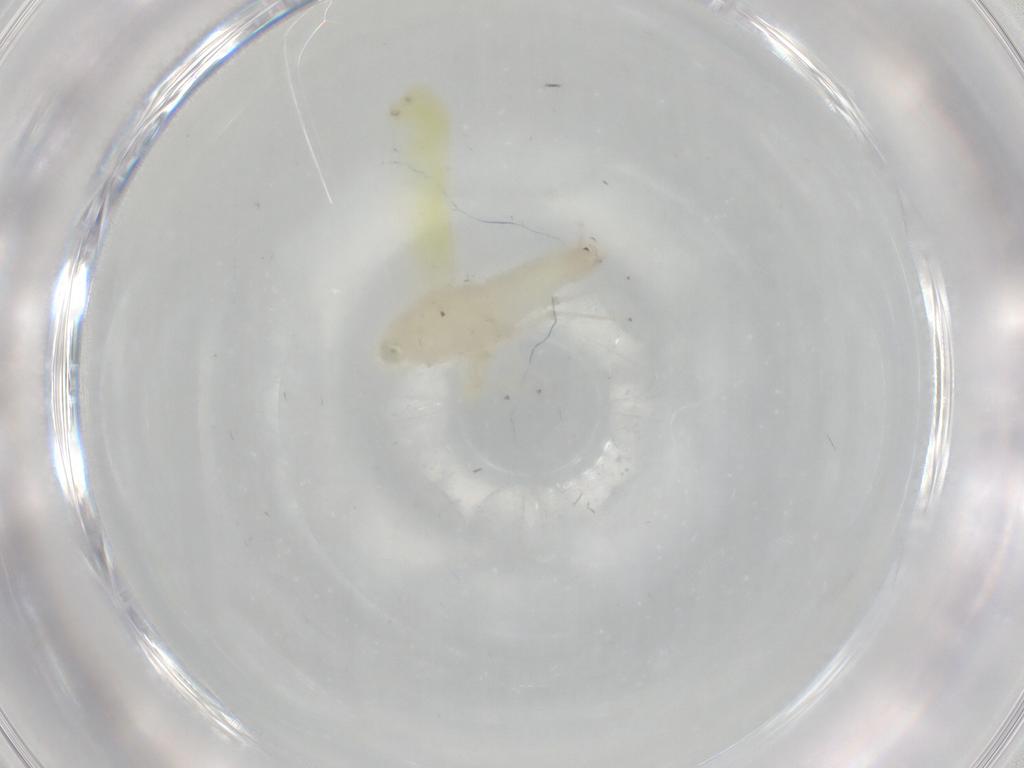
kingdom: Animalia
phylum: Arthropoda
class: Insecta
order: Hemiptera
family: Cicadellidae
